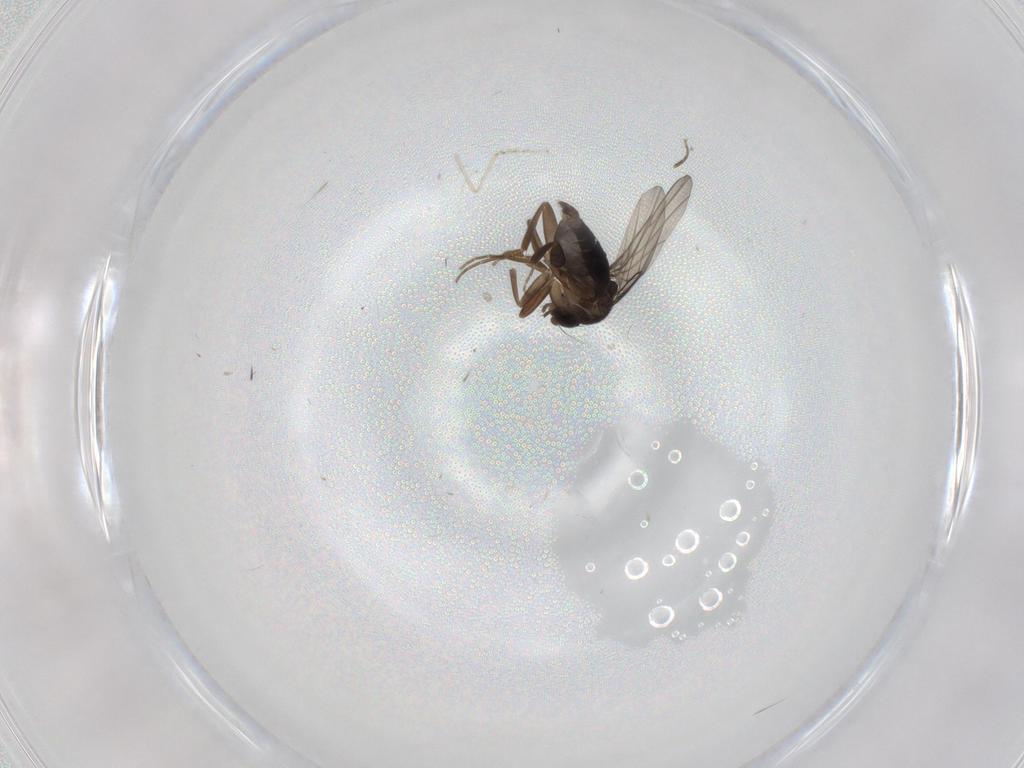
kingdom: Animalia
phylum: Arthropoda
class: Insecta
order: Diptera
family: Cecidomyiidae
